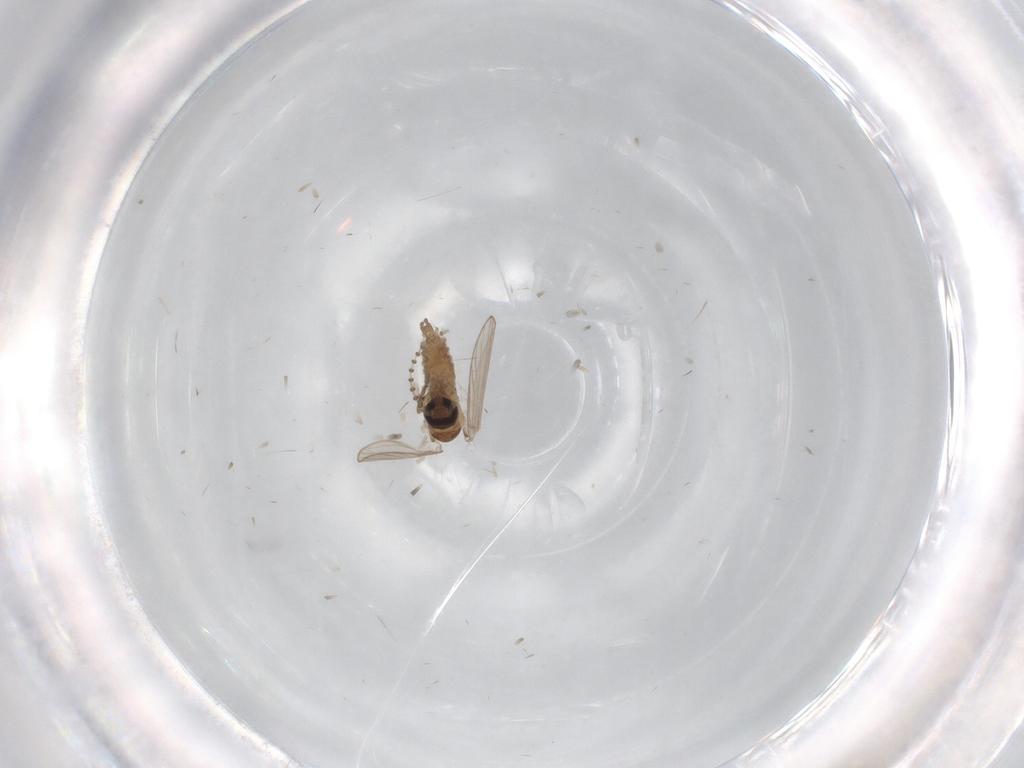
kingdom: Animalia
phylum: Arthropoda
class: Insecta
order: Diptera
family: Psychodidae
